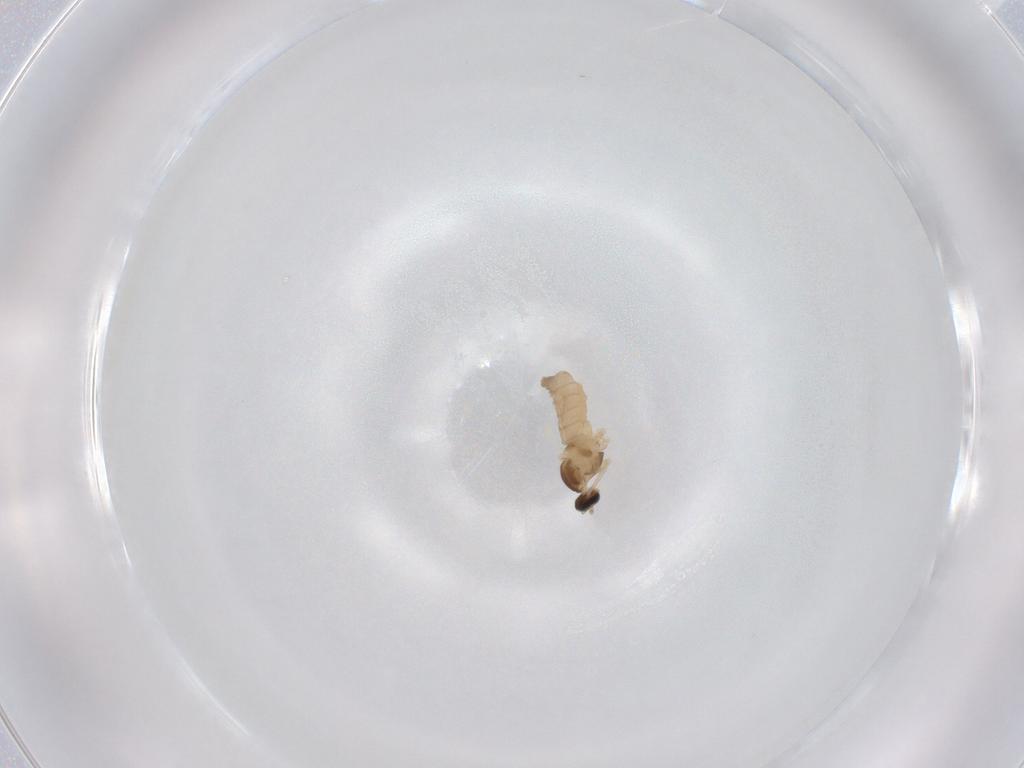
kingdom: Animalia
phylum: Arthropoda
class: Insecta
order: Diptera
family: Cecidomyiidae
